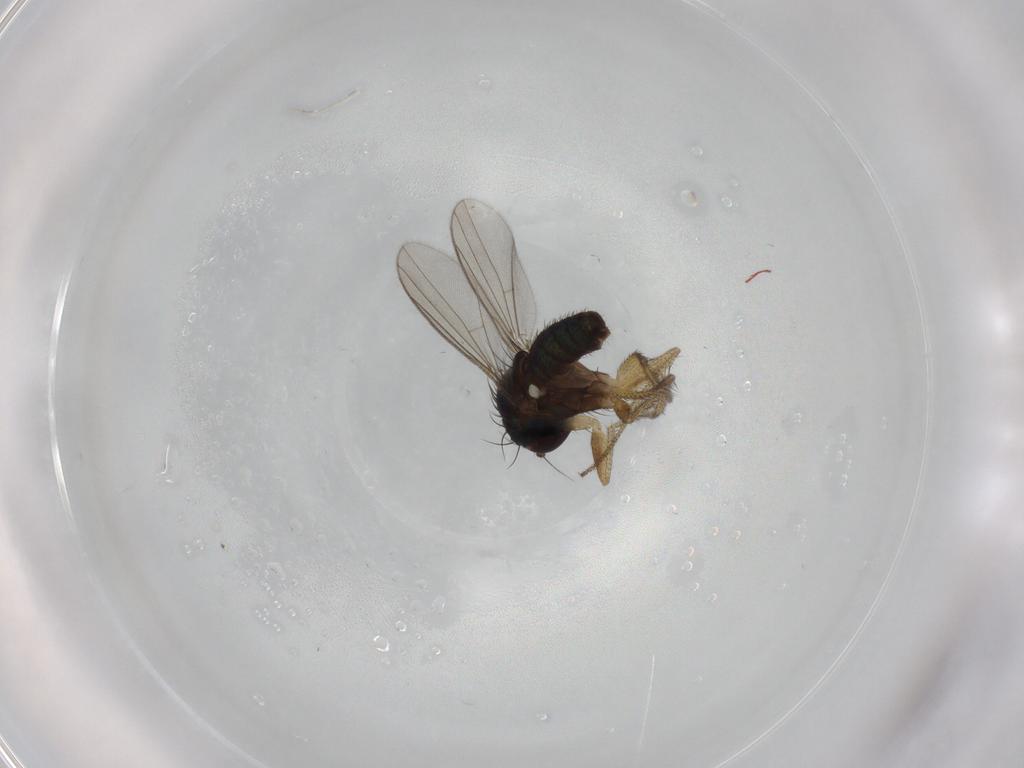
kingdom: Animalia
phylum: Arthropoda
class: Insecta
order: Diptera
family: Dolichopodidae
